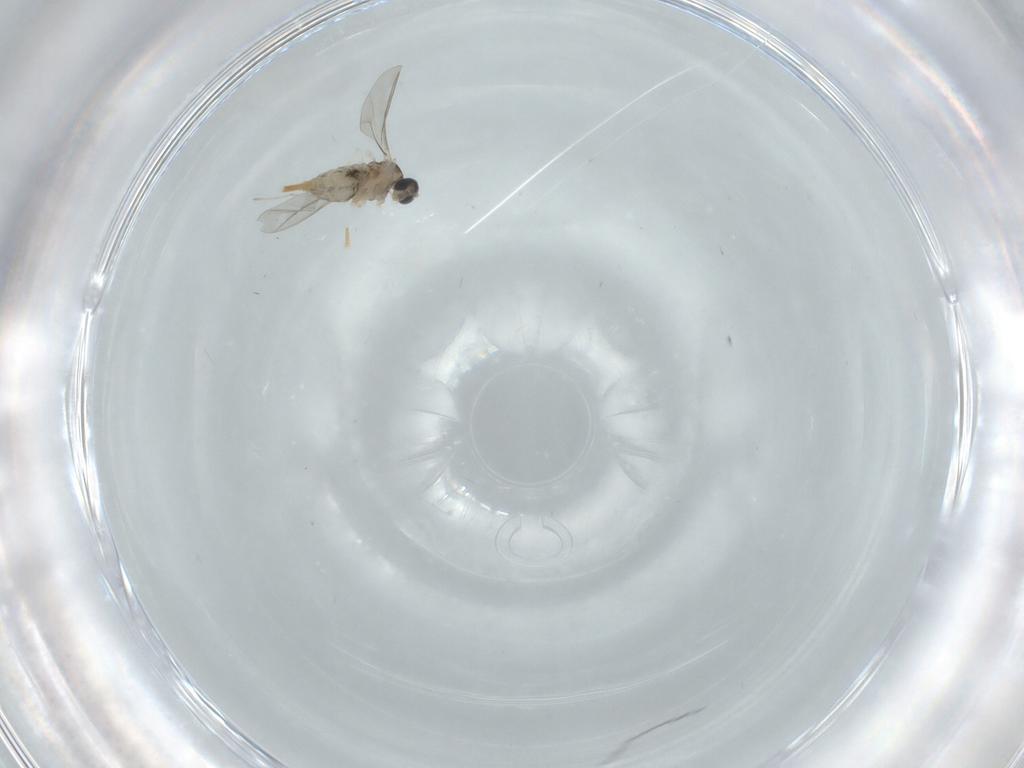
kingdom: Animalia
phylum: Arthropoda
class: Insecta
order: Diptera
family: Cecidomyiidae
